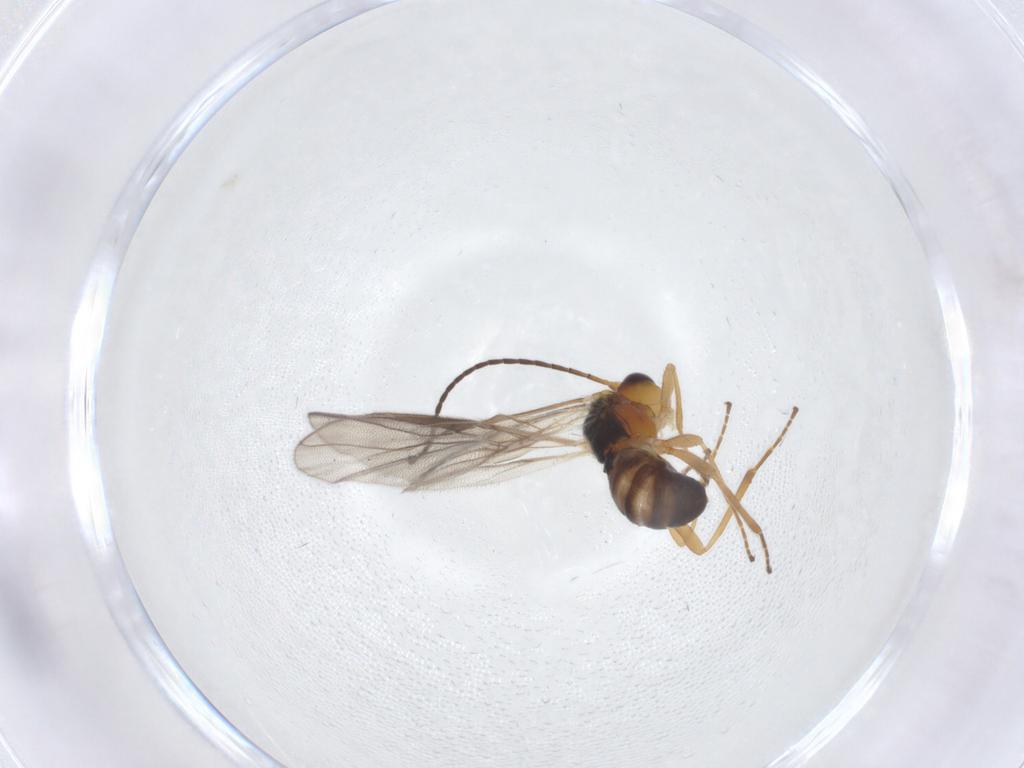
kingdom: Animalia
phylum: Arthropoda
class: Insecta
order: Hymenoptera
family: Braconidae
